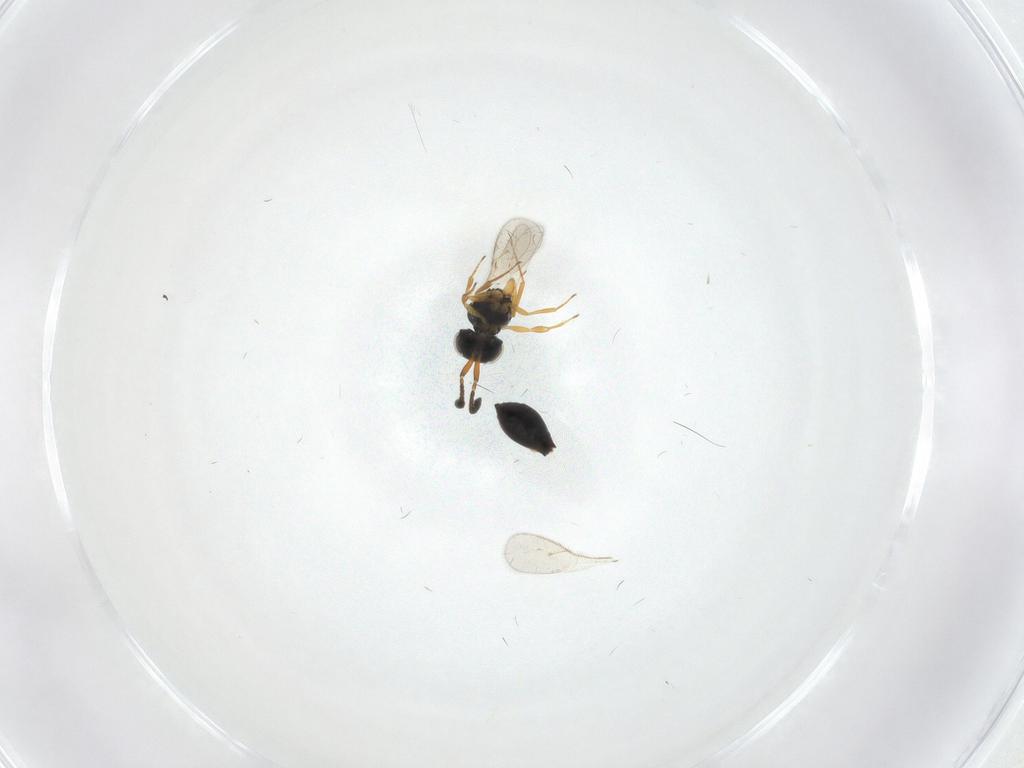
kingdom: Animalia
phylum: Arthropoda
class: Insecta
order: Hymenoptera
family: Scelionidae
